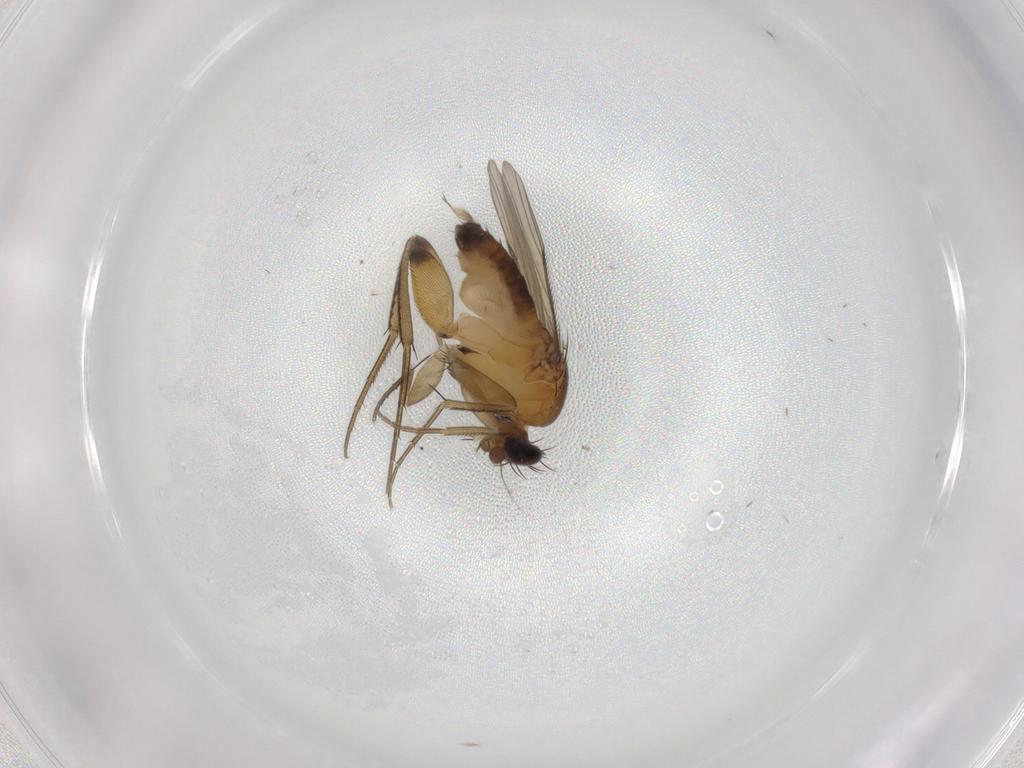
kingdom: Animalia
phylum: Arthropoda
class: Insecta
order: Diptera
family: Phoridae
